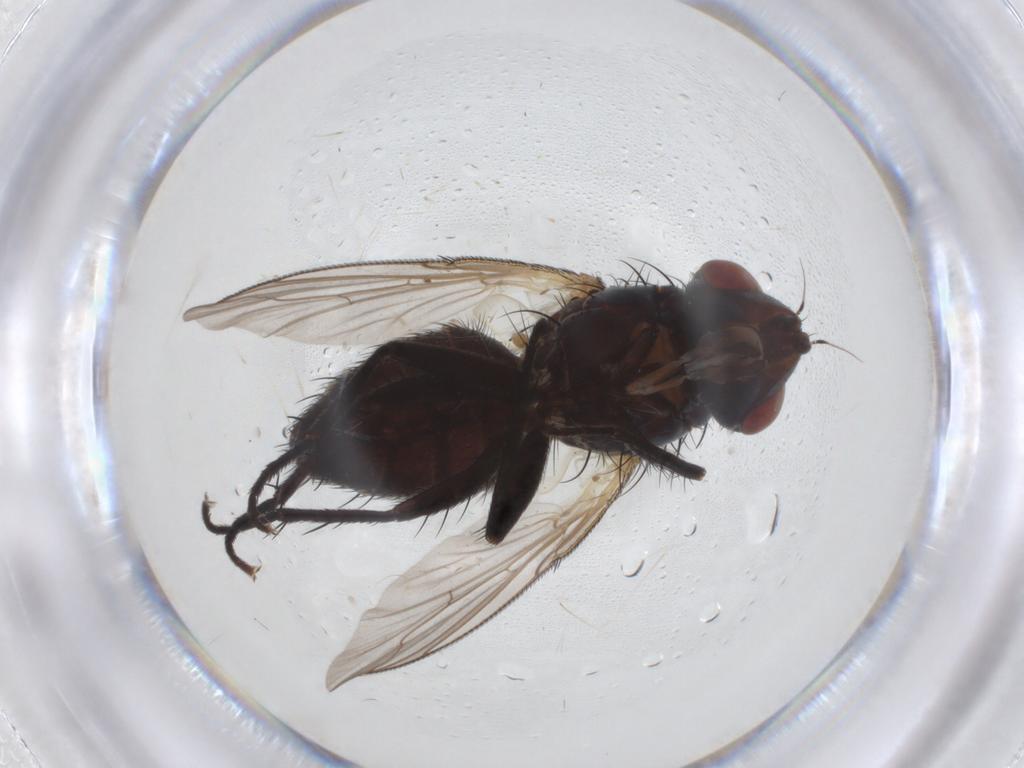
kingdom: Animalia
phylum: Arthropoda
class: Insecta
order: Diptera
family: Sarcophagidae
